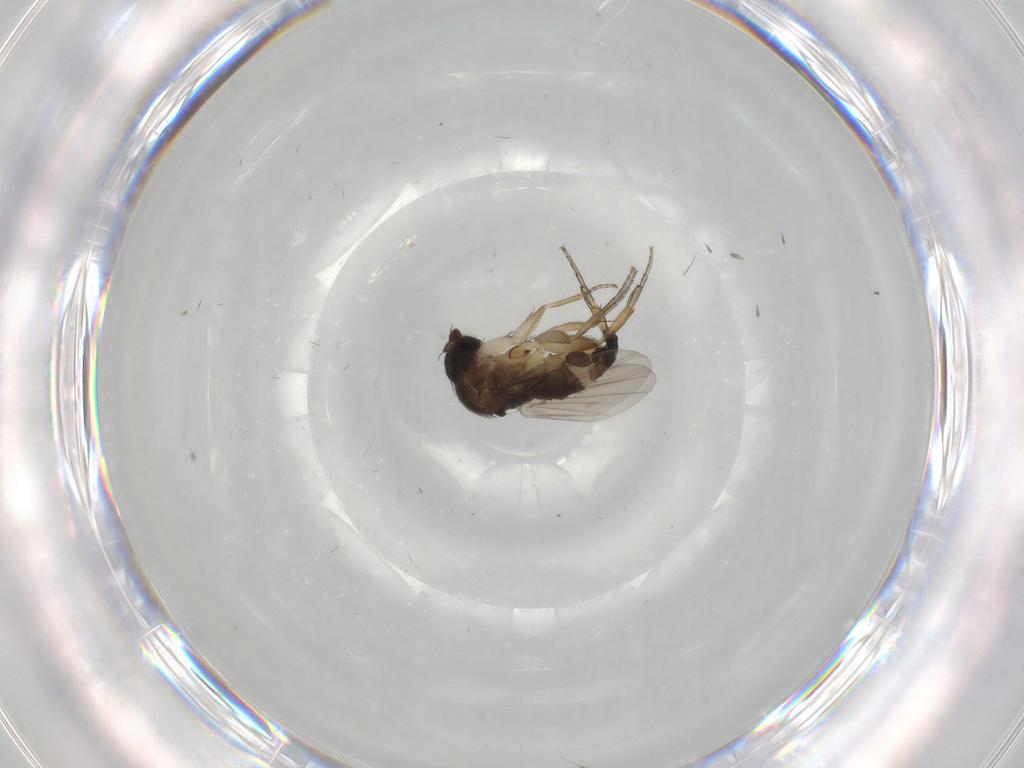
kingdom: Animalia
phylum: Arthropoda
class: Insecta
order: Diptera
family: Phoridae
